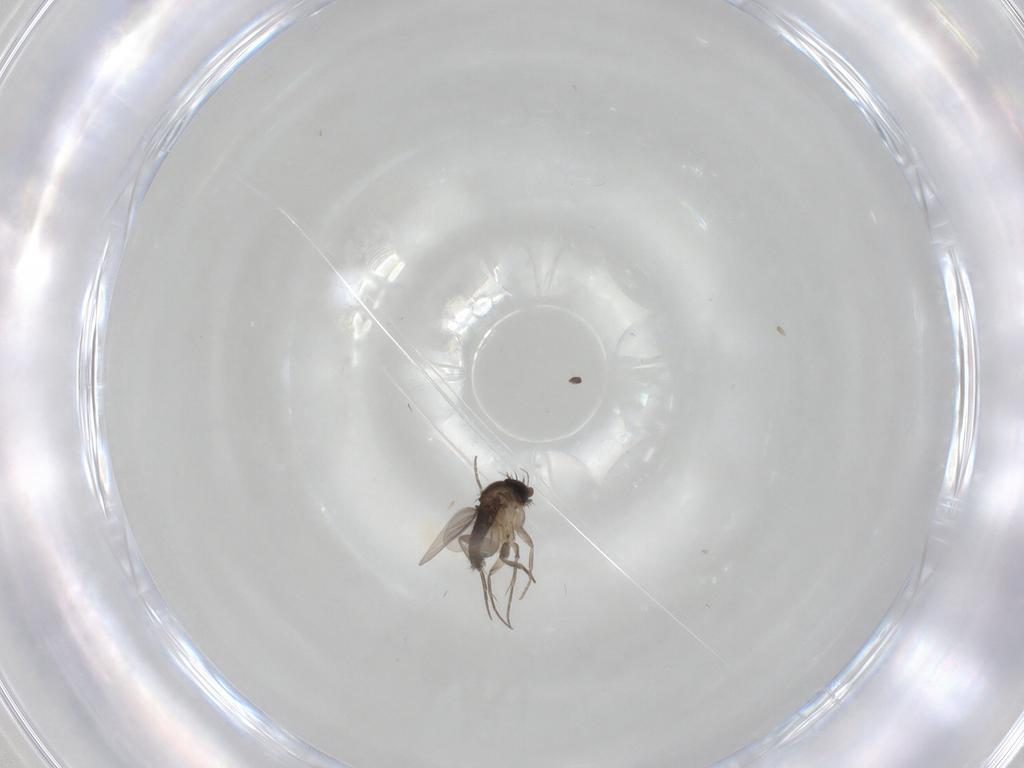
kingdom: Animalia
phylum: Arthropoda
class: Insecta
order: Diptera
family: Phoridae
